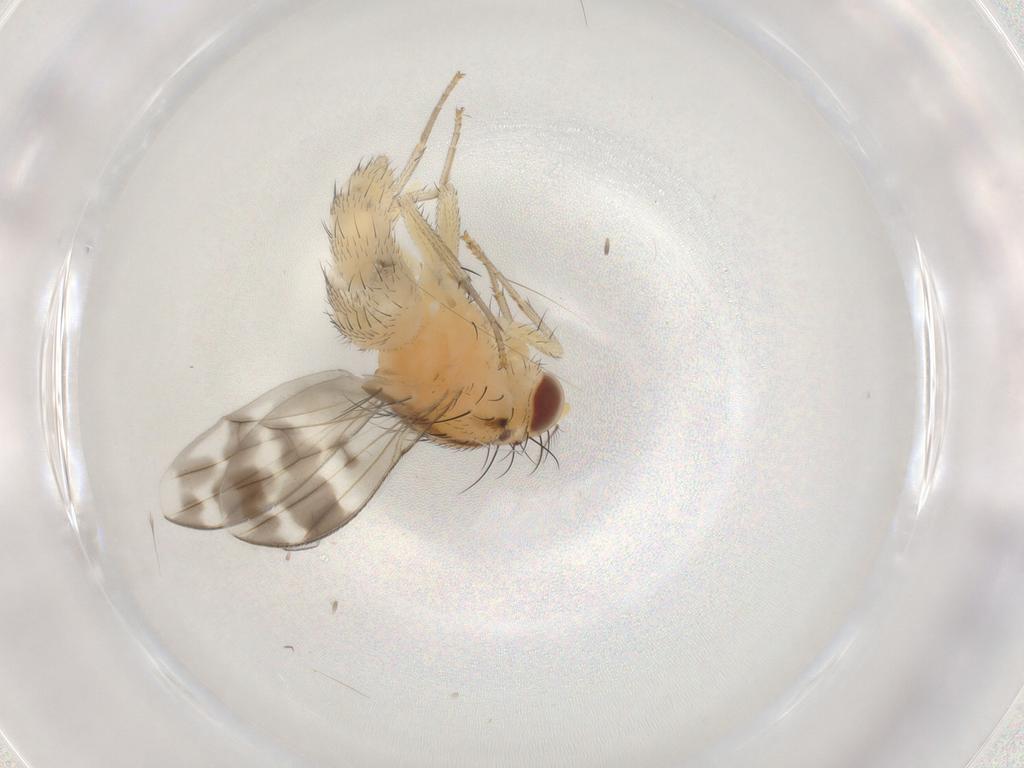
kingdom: Animalia
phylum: Arthropoda
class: Insecta
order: Diptera
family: Lauxaniidae
